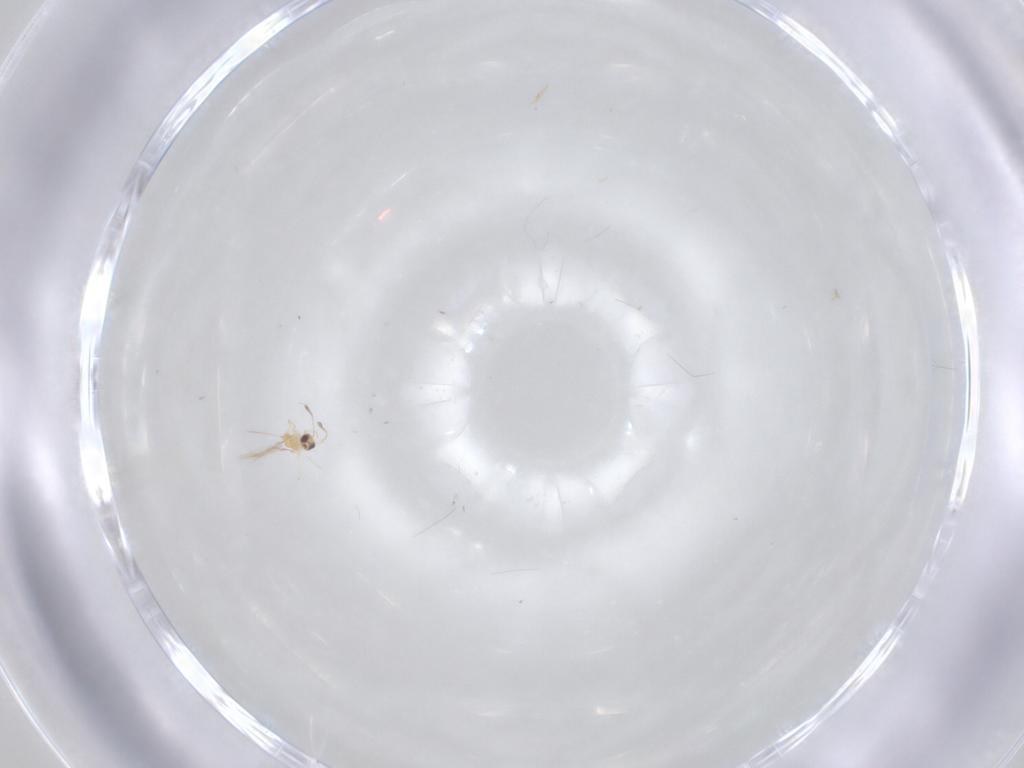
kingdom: Animalia
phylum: Arthropoda
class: Insecta
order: Hymenoptera
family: Mymaridae
